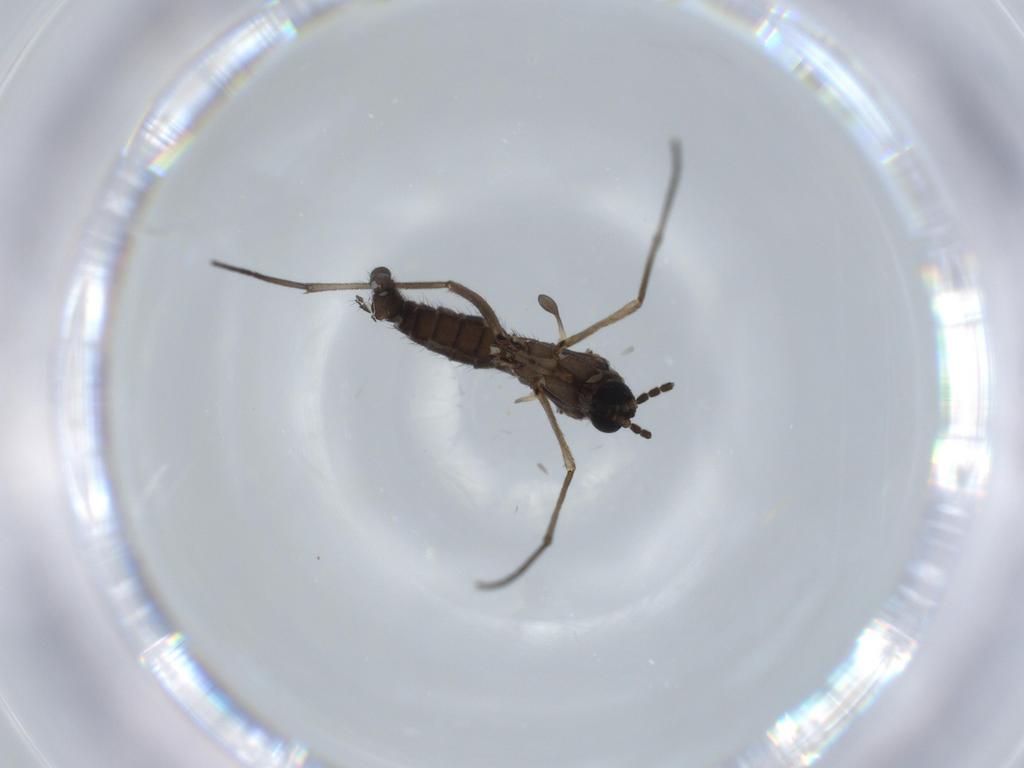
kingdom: Animalia
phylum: Arthropoda
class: Insecta
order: Diptera
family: Sciaridae
